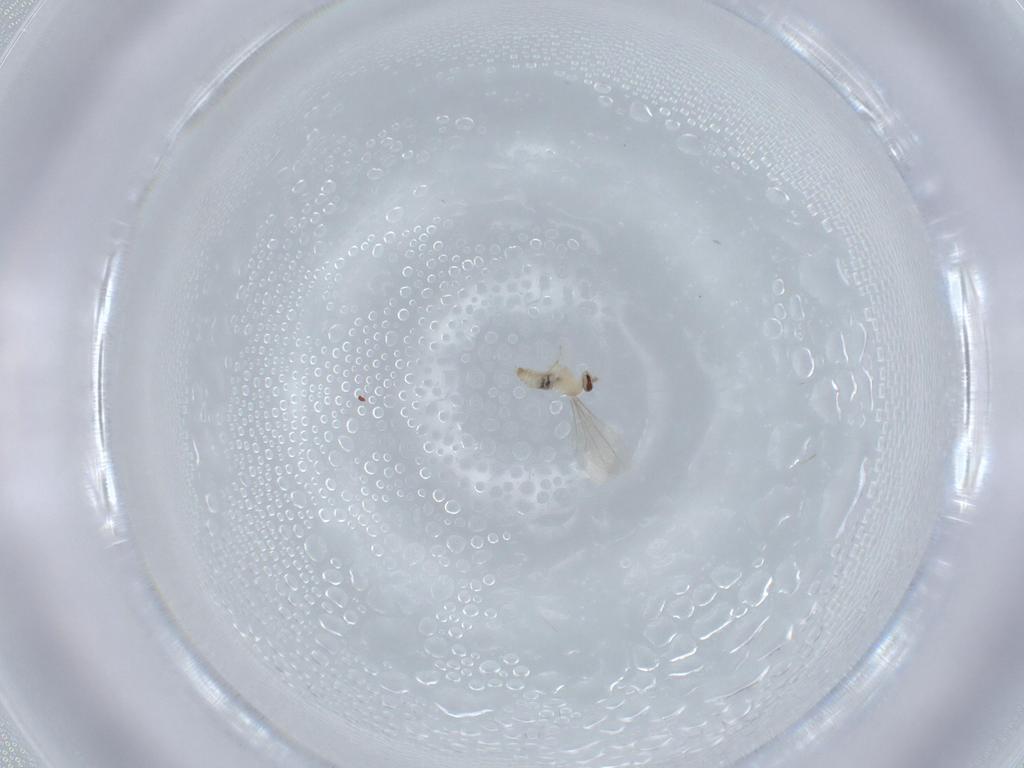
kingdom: Animalia
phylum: Arthropoda
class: Insecta
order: Diptera
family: Cecidomyiidae
